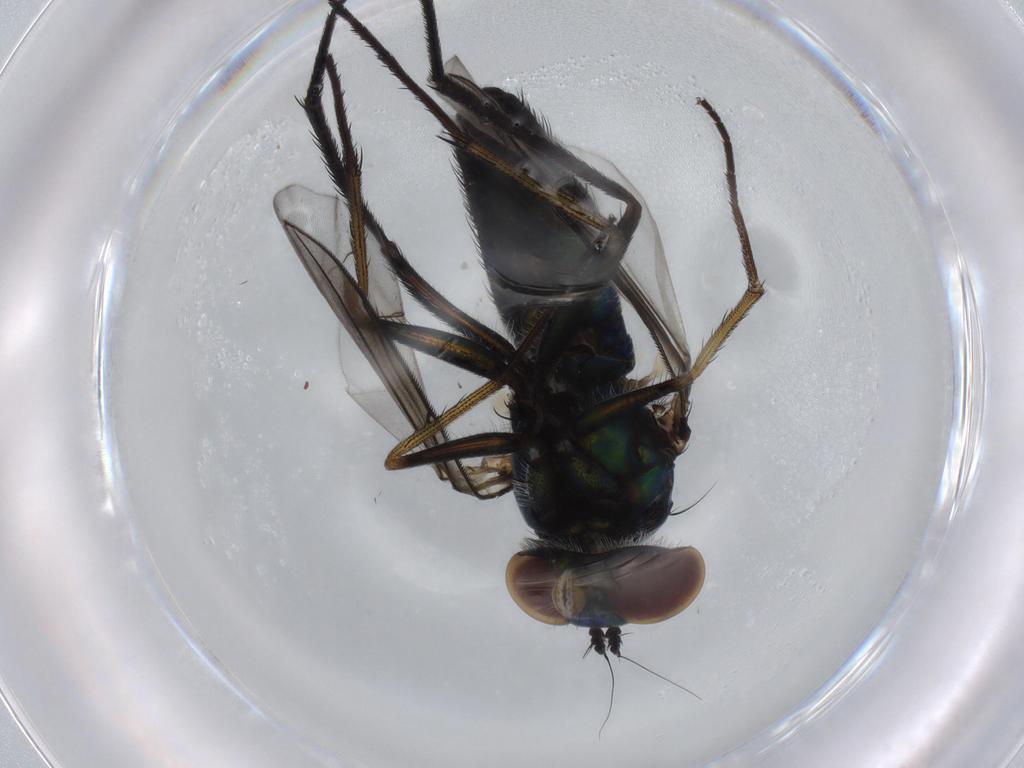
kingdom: Animalia
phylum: Arthropoda
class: Insecta
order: Diptera
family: Dolichopodidae
